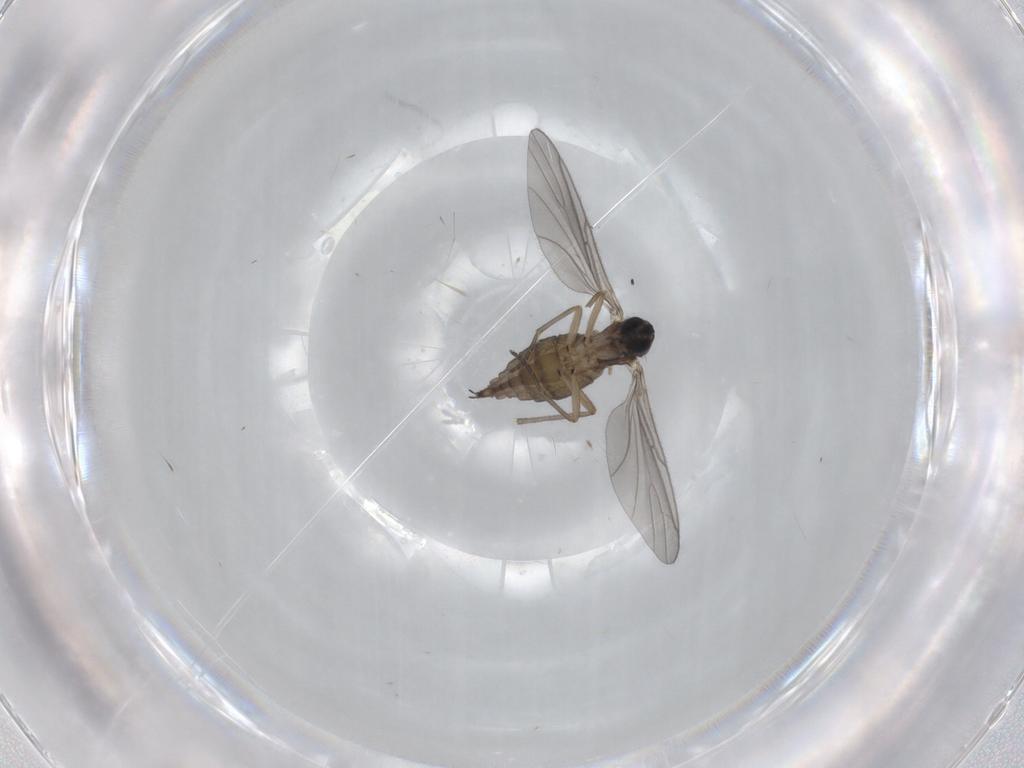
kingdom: Animalia
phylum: Arthropoda
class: Insecta
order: Diptera
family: Sciaridae
